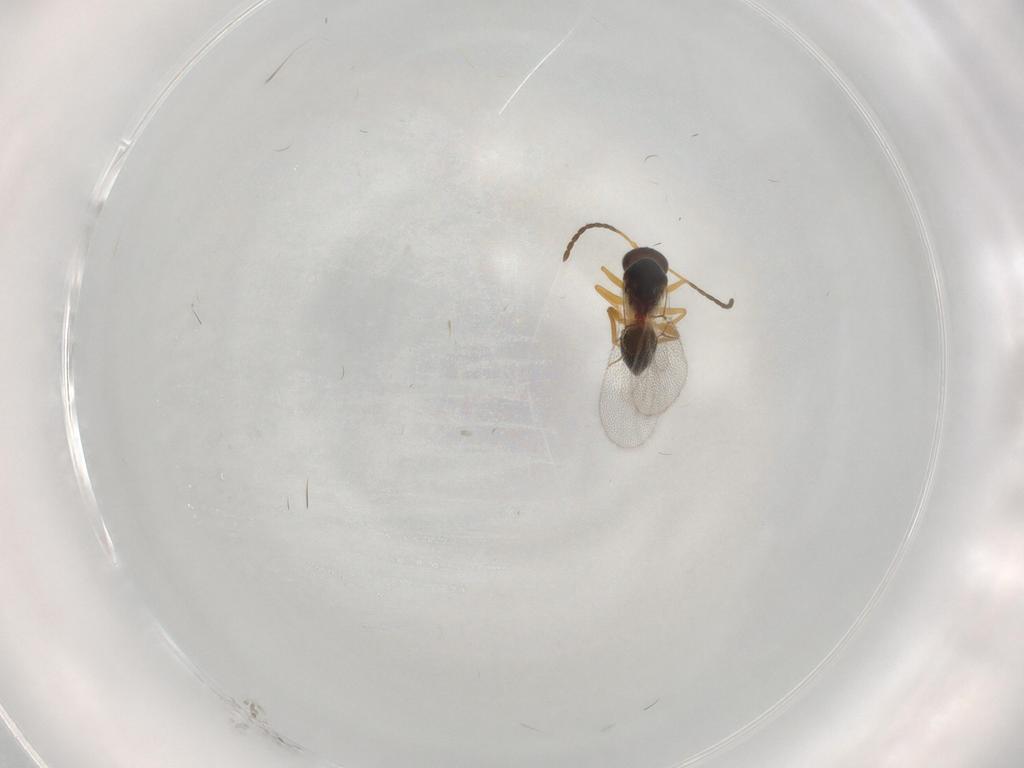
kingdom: Animalia
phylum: Arthropoda
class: Insecta
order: Hymenoptera
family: Figitidae
